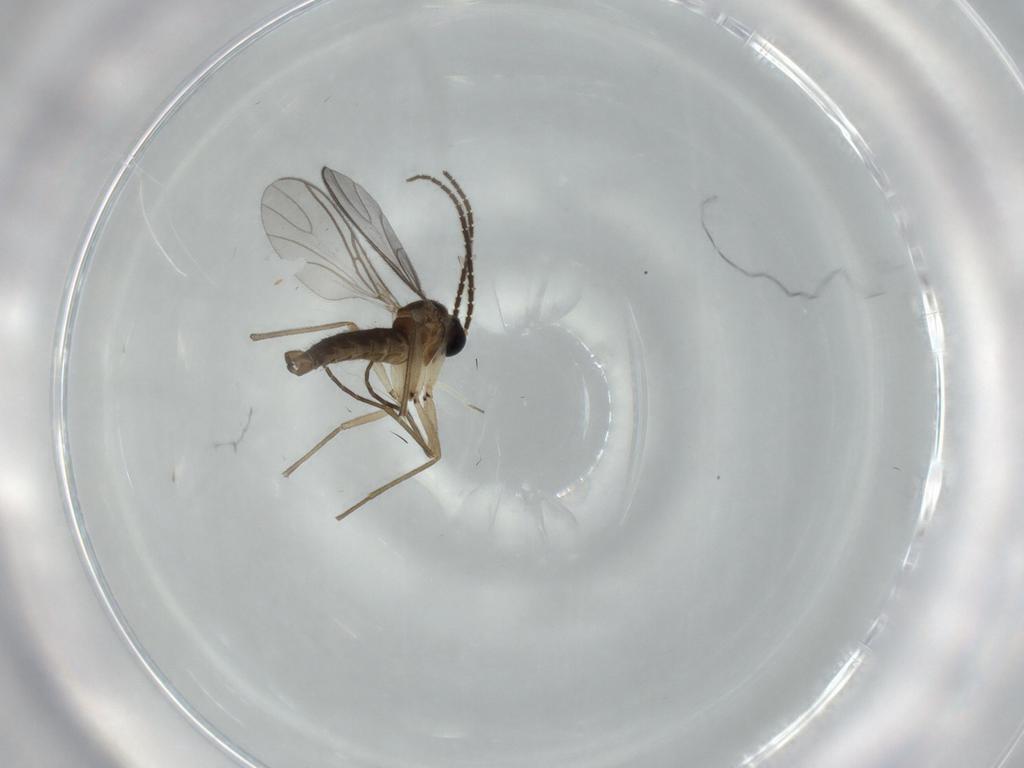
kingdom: Animalia
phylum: Arthropoda
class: Insecta
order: Diptera
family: Sciaridae
